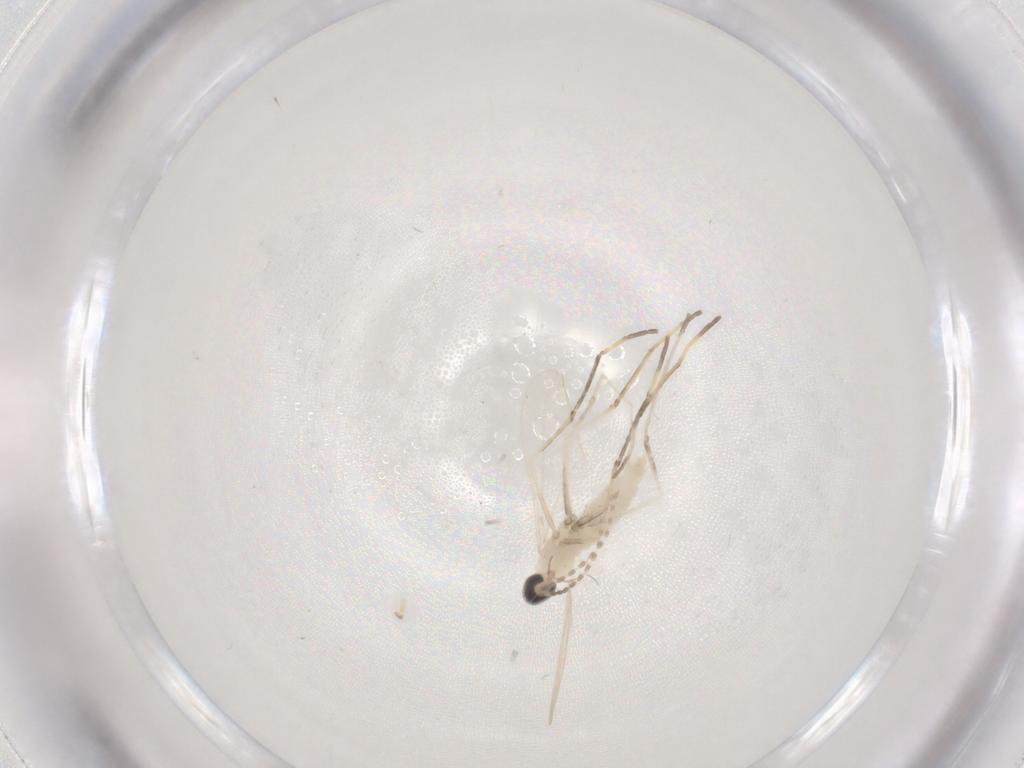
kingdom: Animalia
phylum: Arthropoda
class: Insecta
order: Diptera
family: Cecidomyiidae
